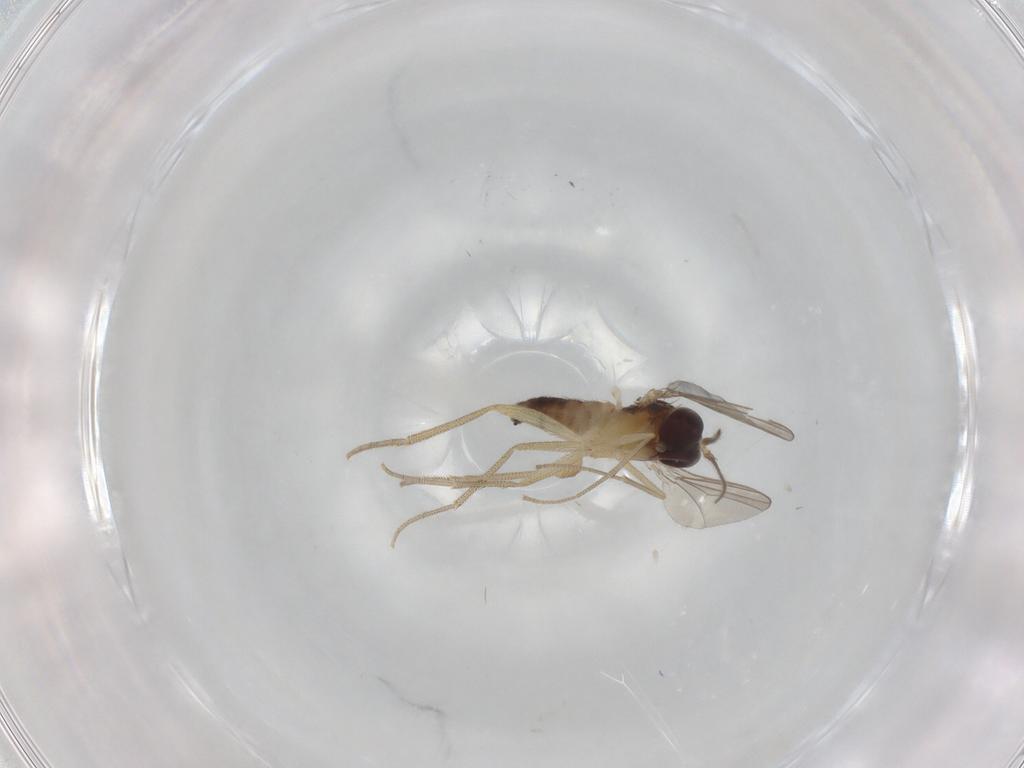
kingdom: Animalia
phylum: Arthropoda
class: Insecta
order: Diptera
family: Dolichopodidae
